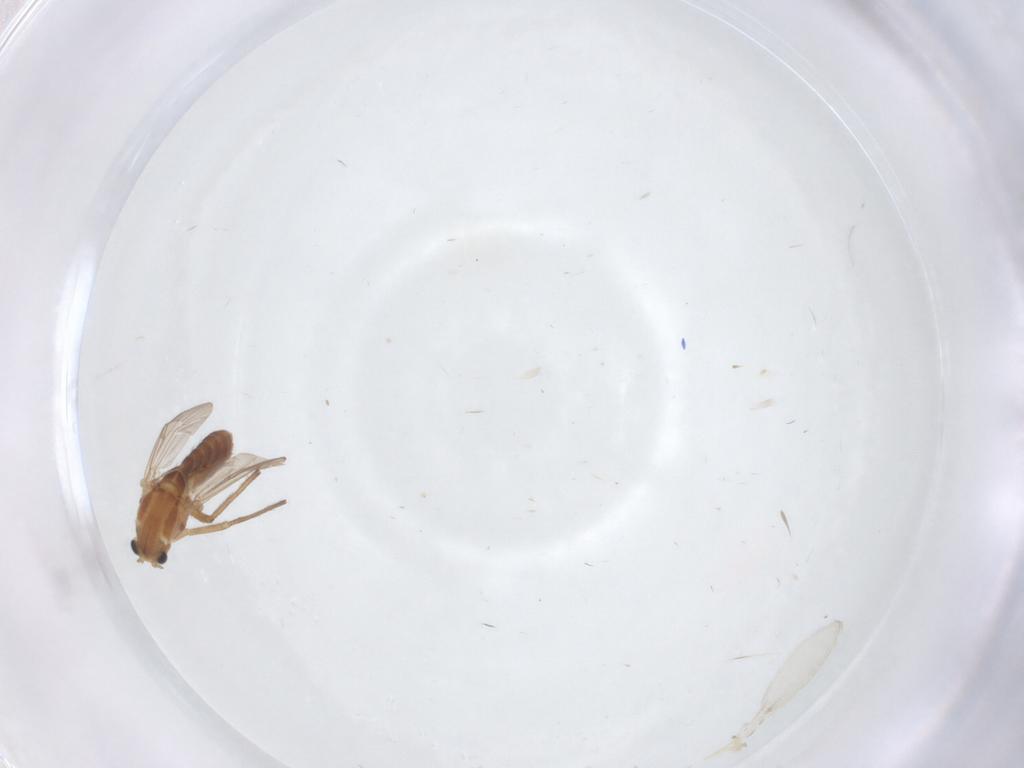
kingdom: Animalia
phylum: Arthropoda
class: Insecta
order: Diptera
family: Chironomidae
